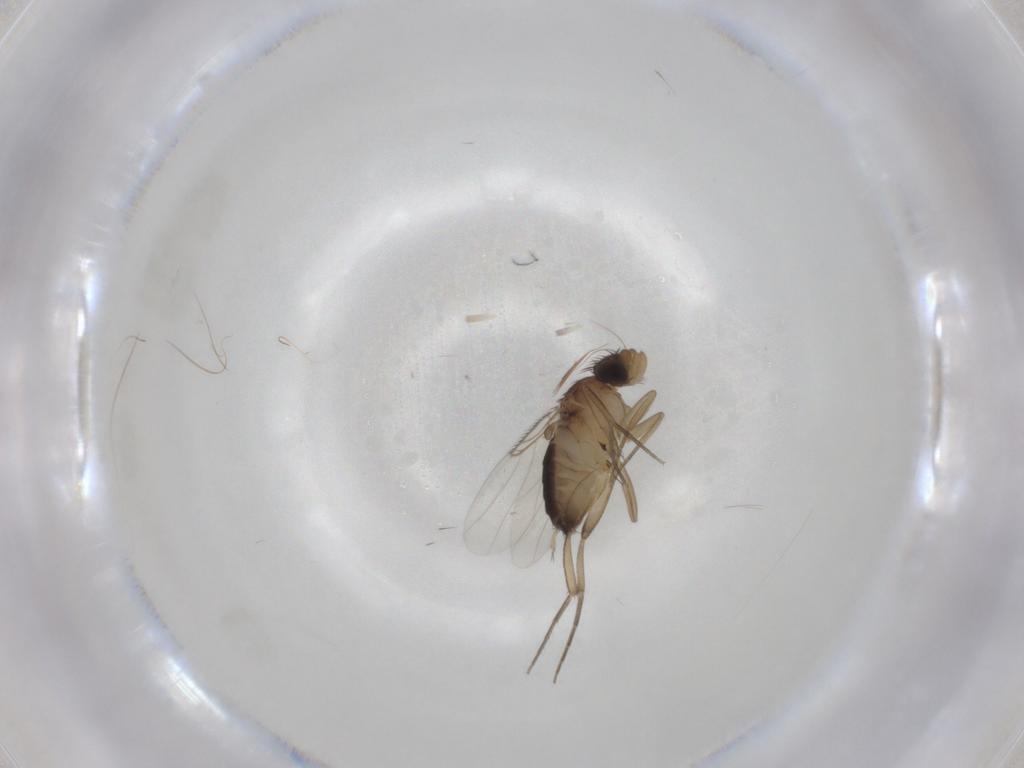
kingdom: Animalia
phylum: Arthropoda
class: Insecta
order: Diptera
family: Phoridae
